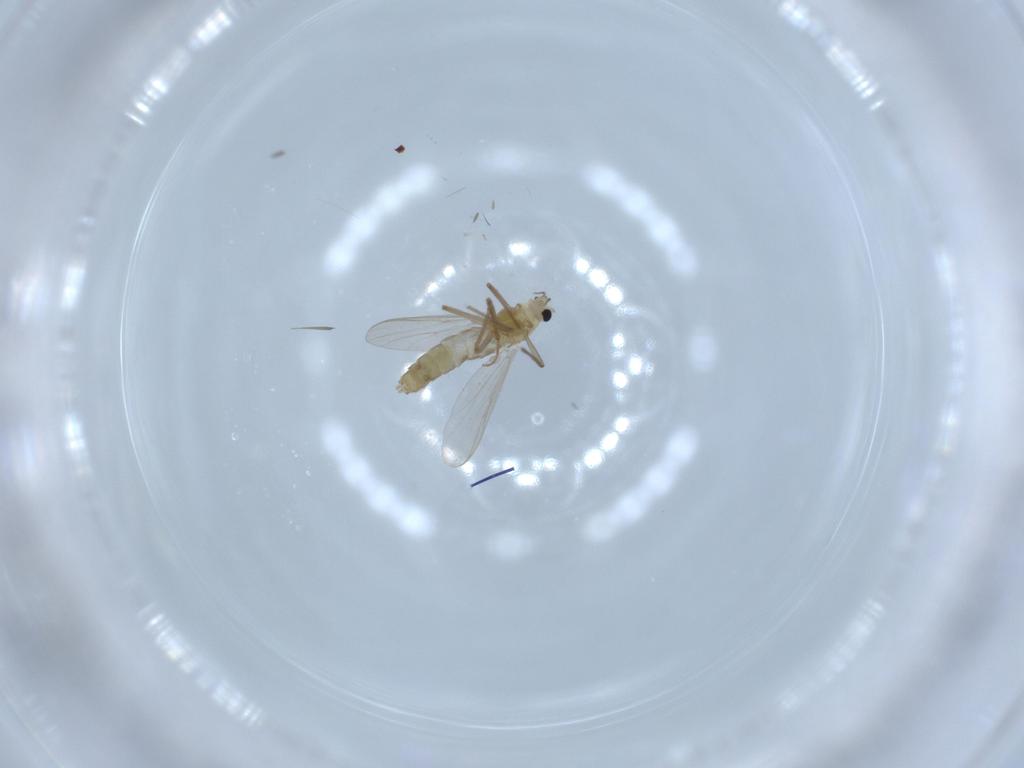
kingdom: Animalia
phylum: Arthropoda
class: Insecta
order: Diptera
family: Chironomidae
